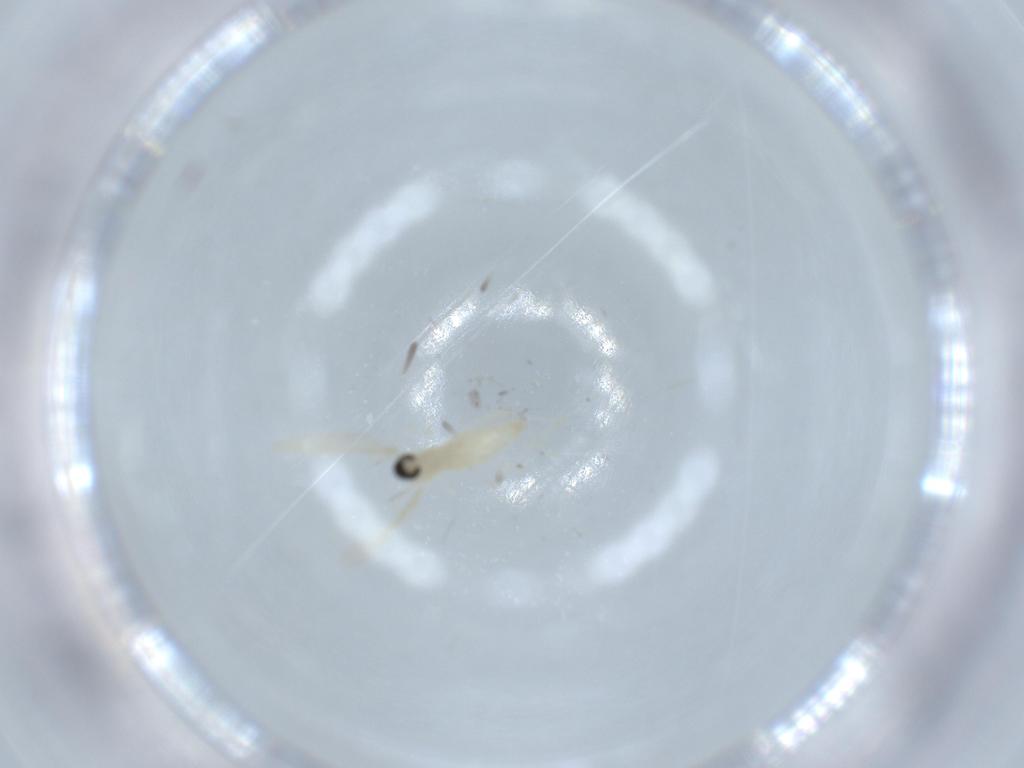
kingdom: Animalia
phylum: Arthropoda
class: Insecta
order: Diptera
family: Cecidomyiidae
